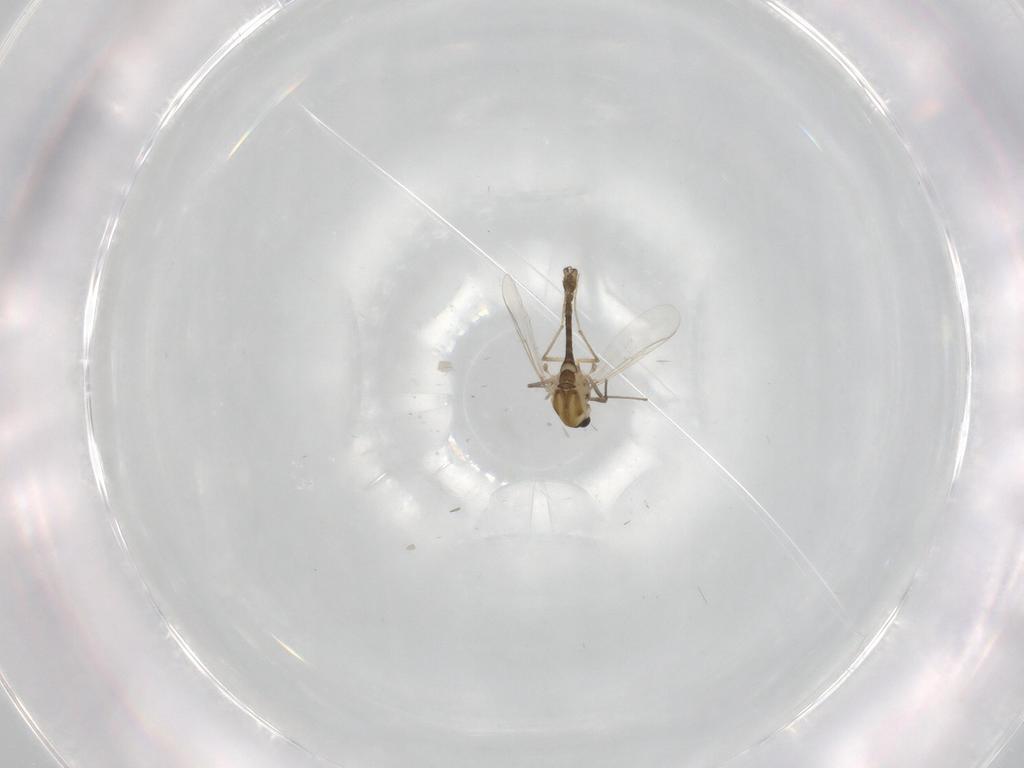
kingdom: Animalia
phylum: Arthropoda
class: Insecta
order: Diptera
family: Chironomidae
